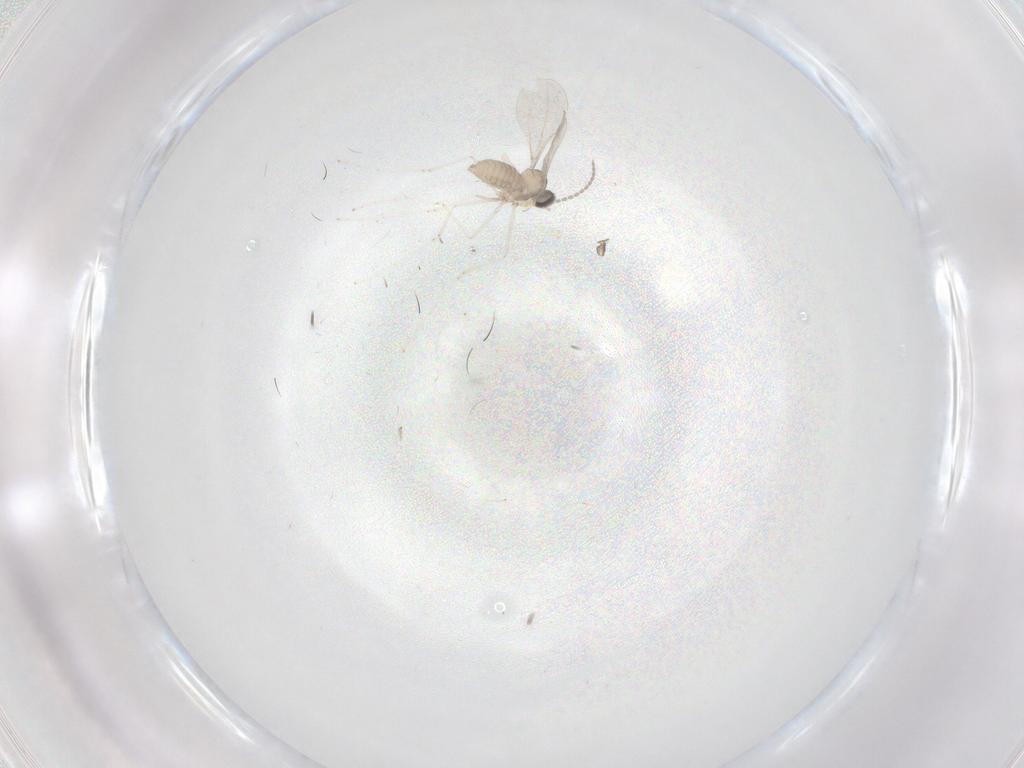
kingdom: Animalia
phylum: Arthropoda
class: Insecta
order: Diptera
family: Cecidomyiidae
